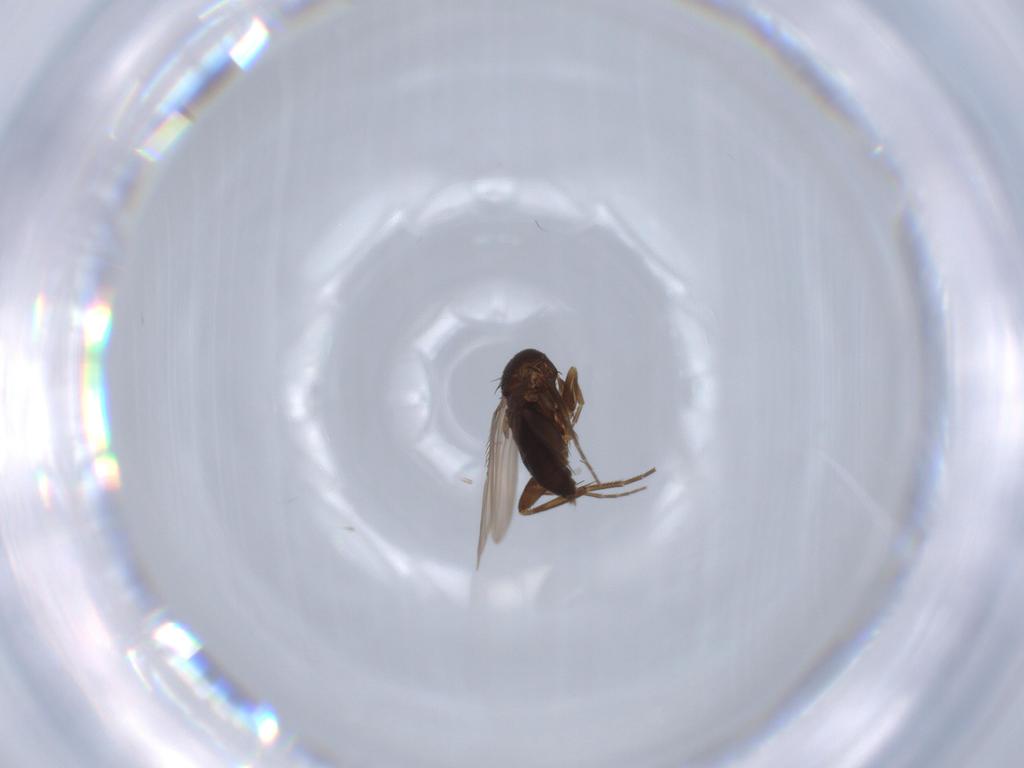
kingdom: Animalia
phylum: Arthropoda
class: Insecta
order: Diptera
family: Phoridae
